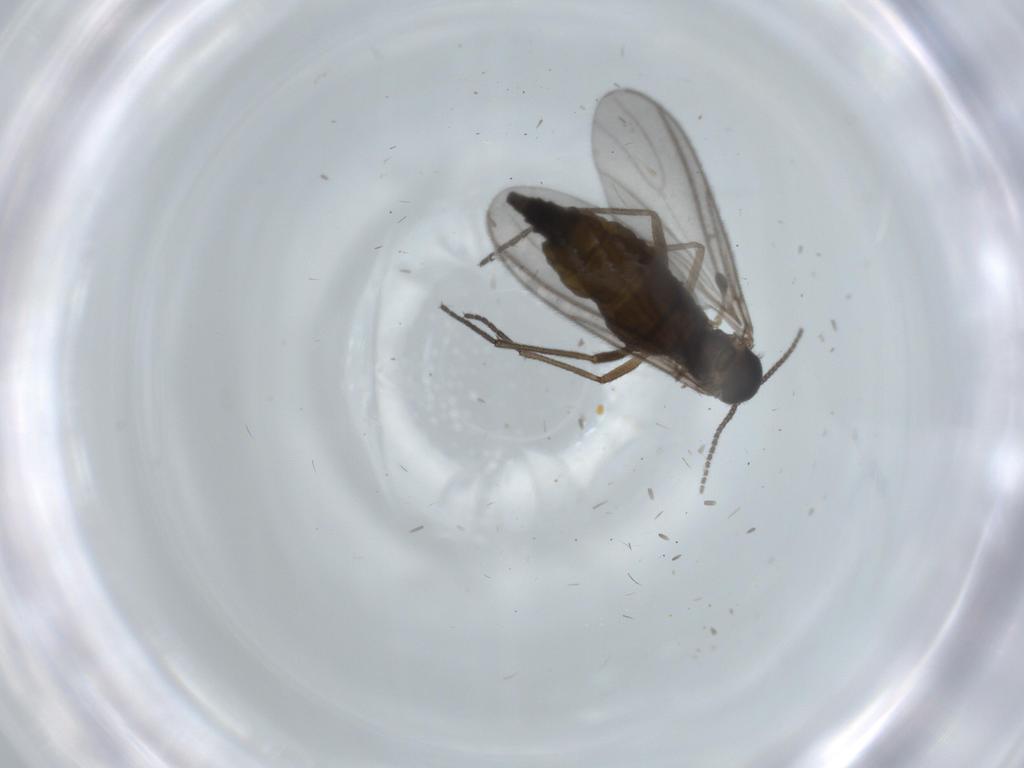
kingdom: Animalia
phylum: Arthropoda
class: Insecta
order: Diptera
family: Sciaridae
